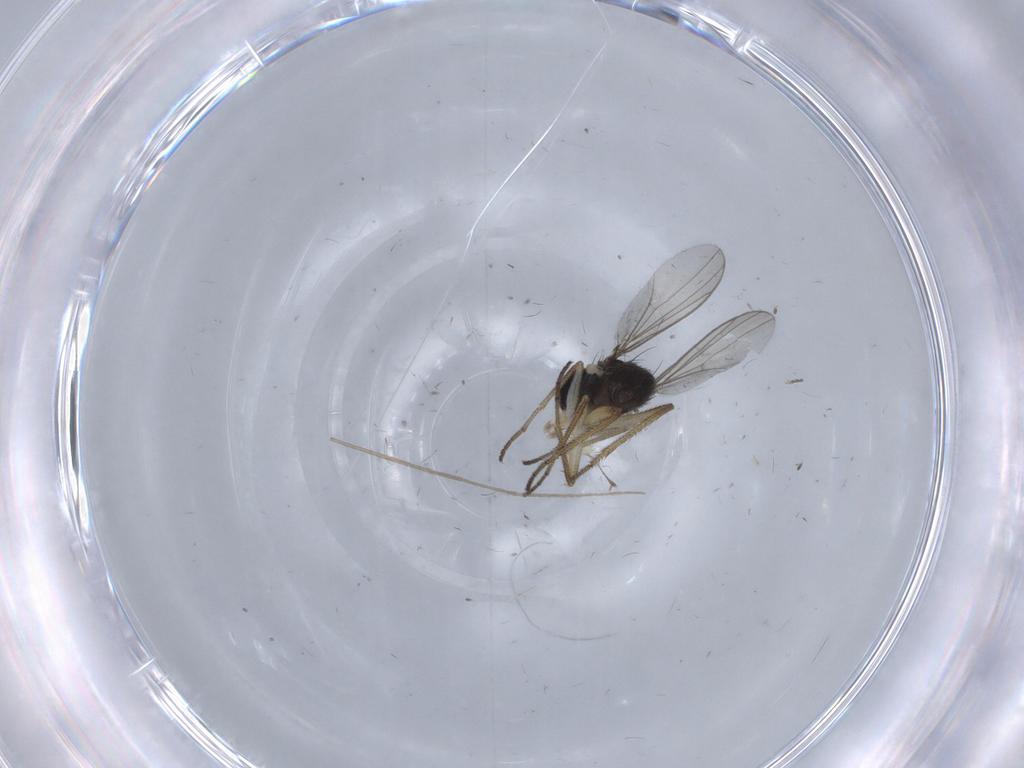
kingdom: Animalia
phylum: Arthropoda
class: Insecta
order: Diptera
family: Dolichopodidae
